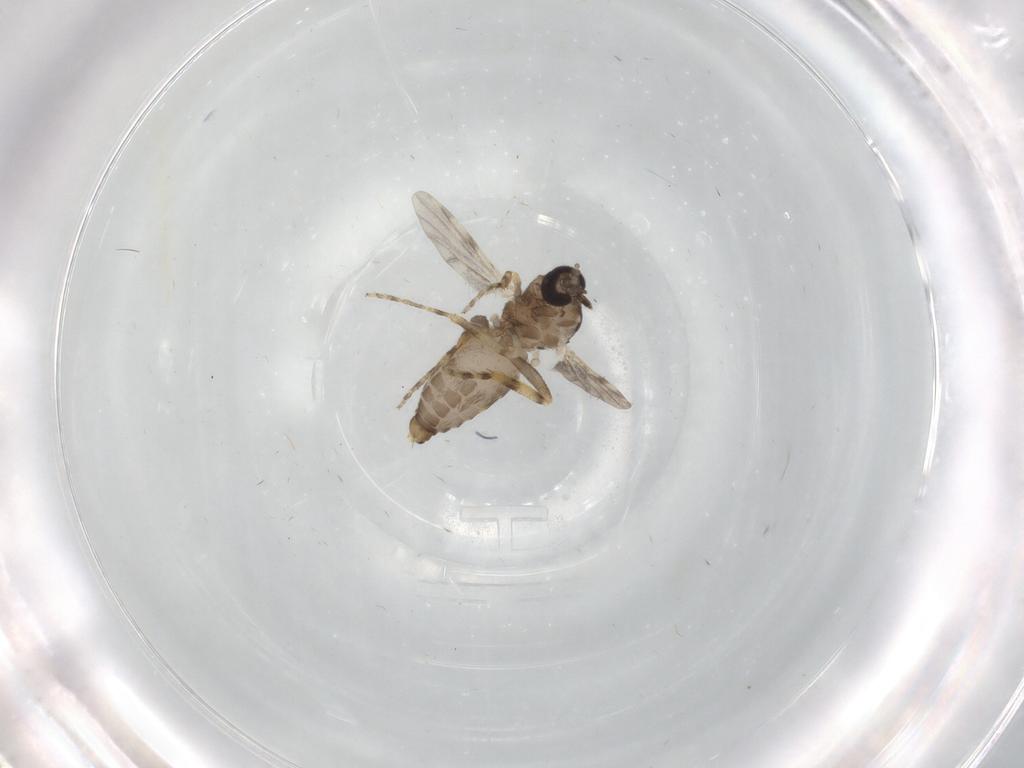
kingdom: Animalia
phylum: Arthropoda
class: Insecta
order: Diptera
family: Ceratopogonidae
